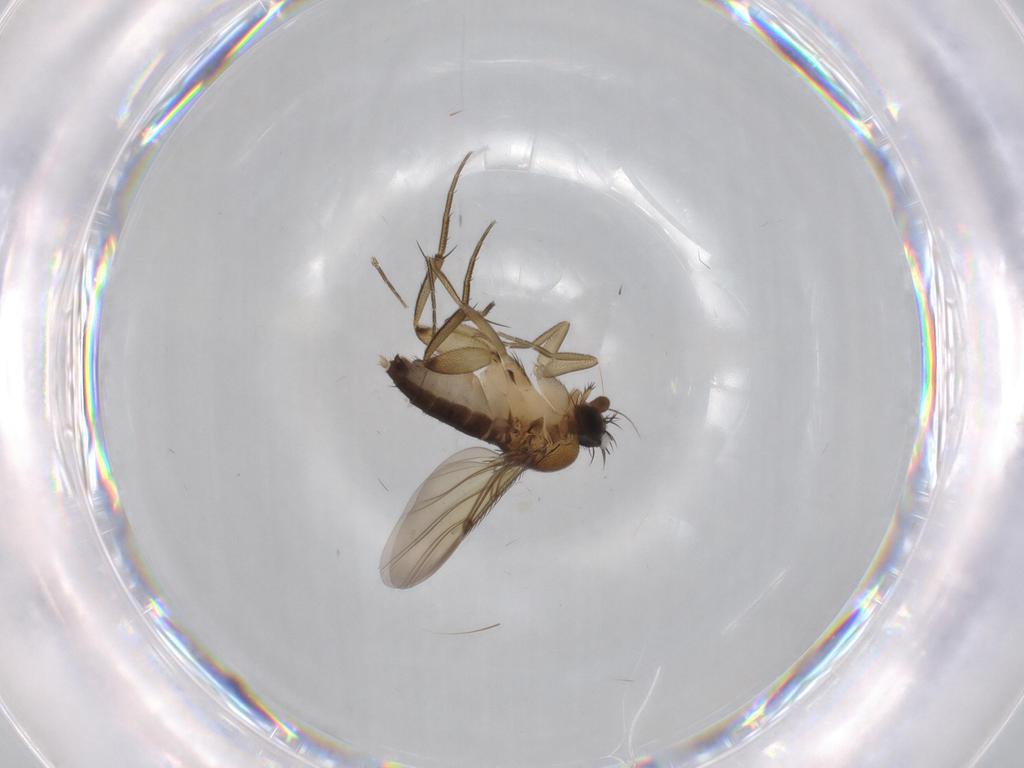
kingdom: Animalia
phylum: Arthropoda
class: Insecta
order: Diptera
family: Phoridae
